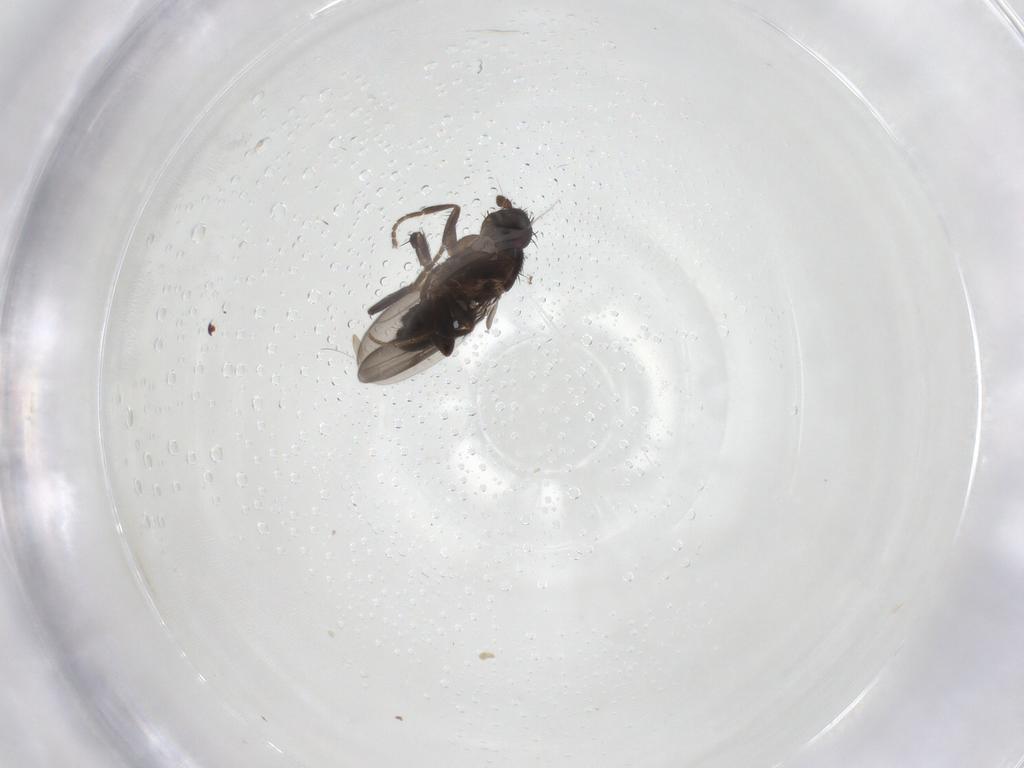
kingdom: Animalia
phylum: Arthropoda
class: Insecta
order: Diptera
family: Sphaeroceridae
